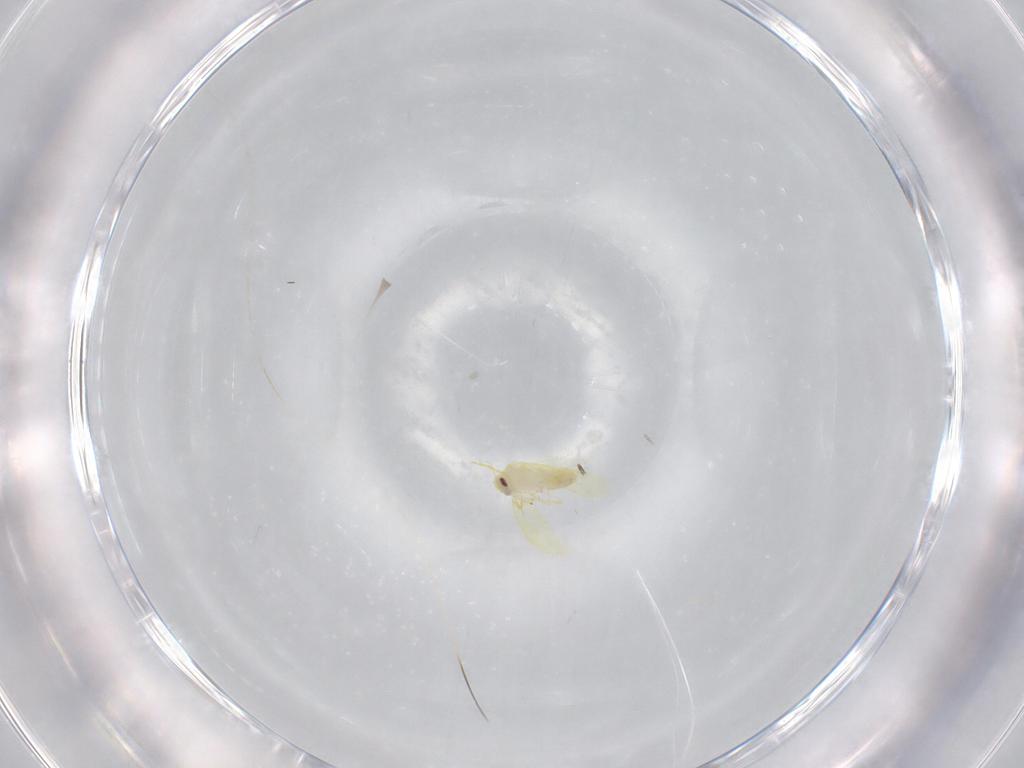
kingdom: Animalia
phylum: Arthropoda
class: Insecta
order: Hemiptera
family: Aleyrodidae
